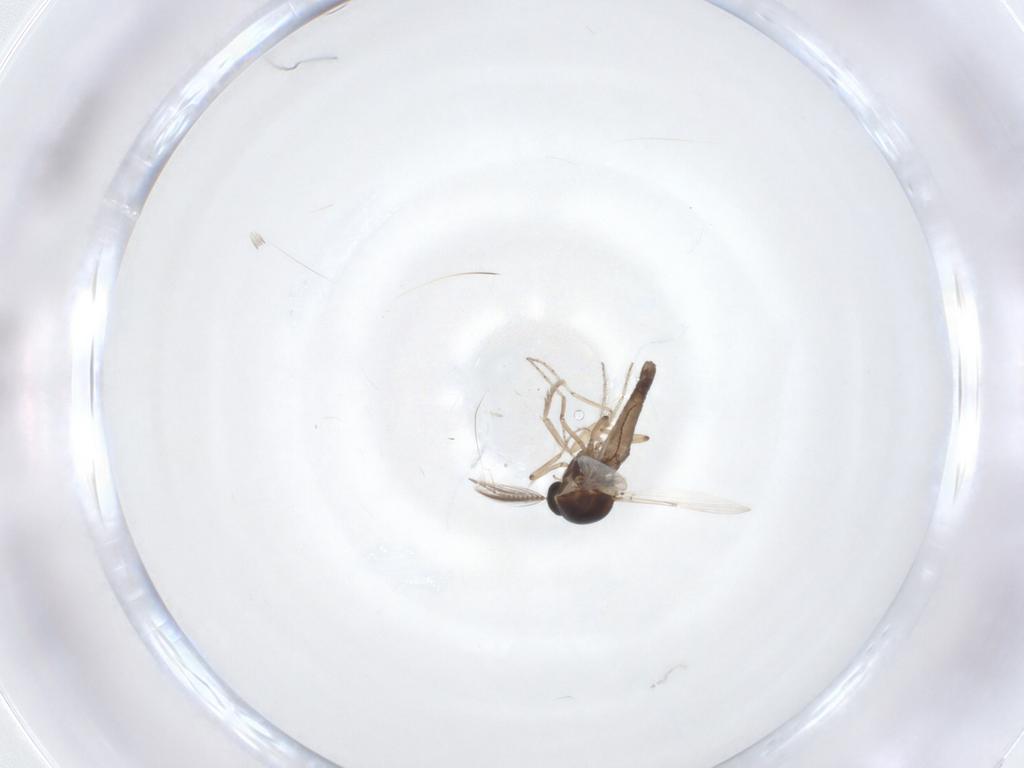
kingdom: Animalia
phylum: Arthropoda
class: Insecta
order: Diptera
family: Ceratopogonidae
